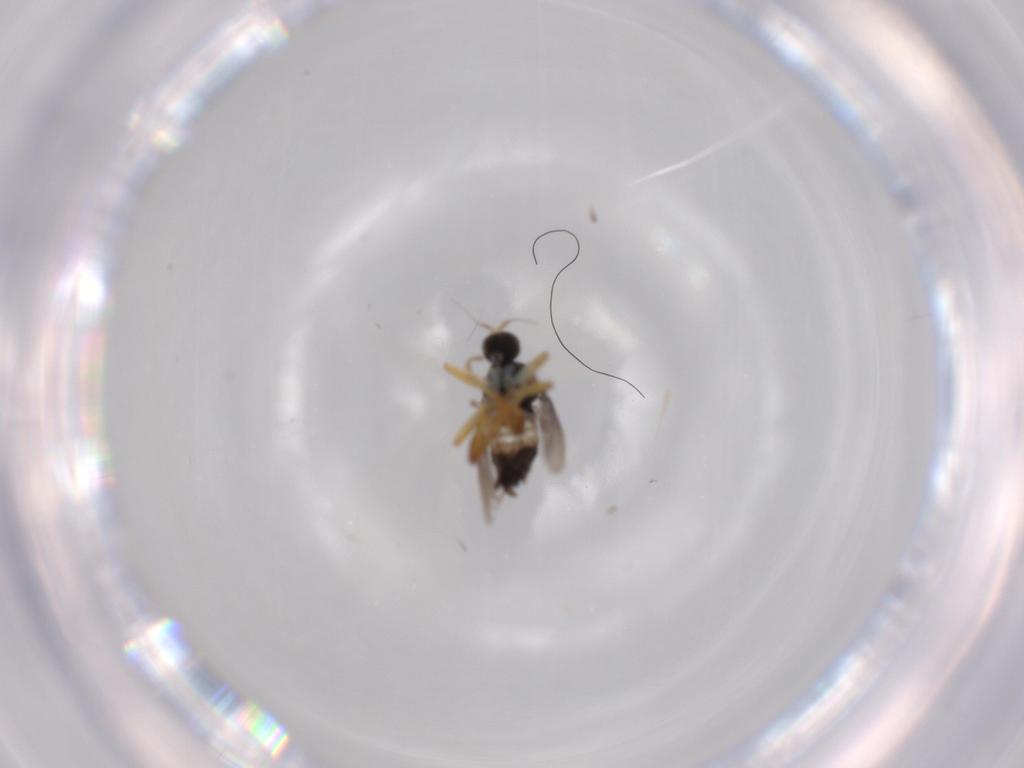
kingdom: Animalia
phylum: Arthropoda
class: Insecta
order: Diptera
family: Hybotidae
